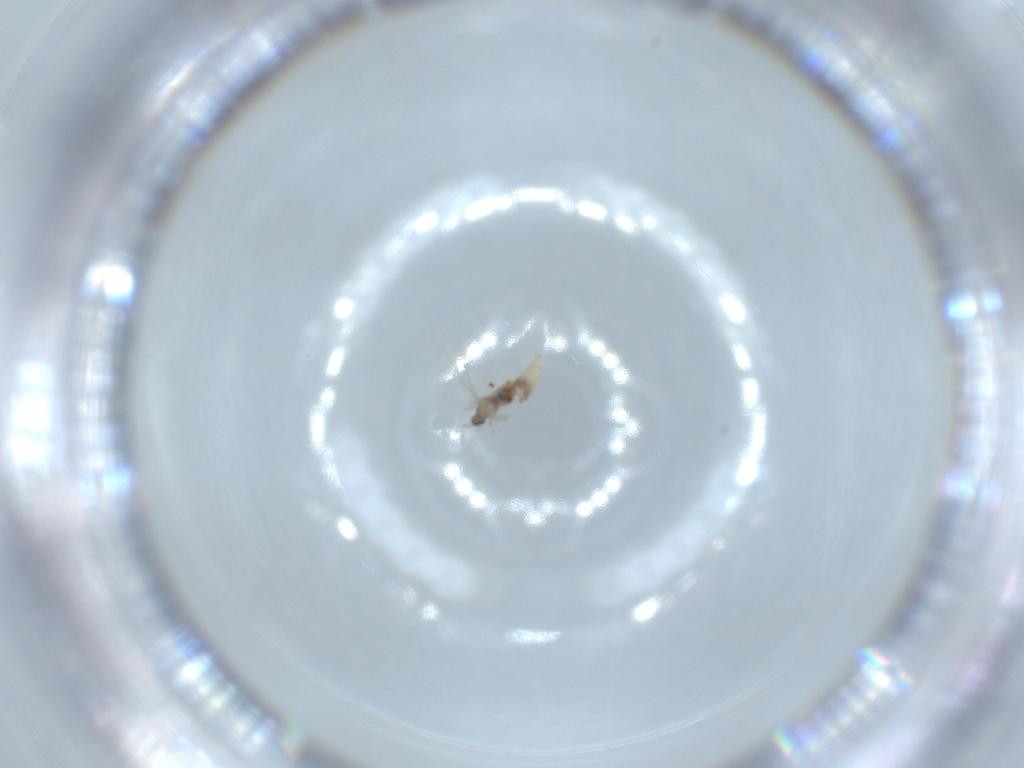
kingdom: Animalia
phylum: Arthropoda
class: Insecta
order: Diptera
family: Cecidomyiidae
